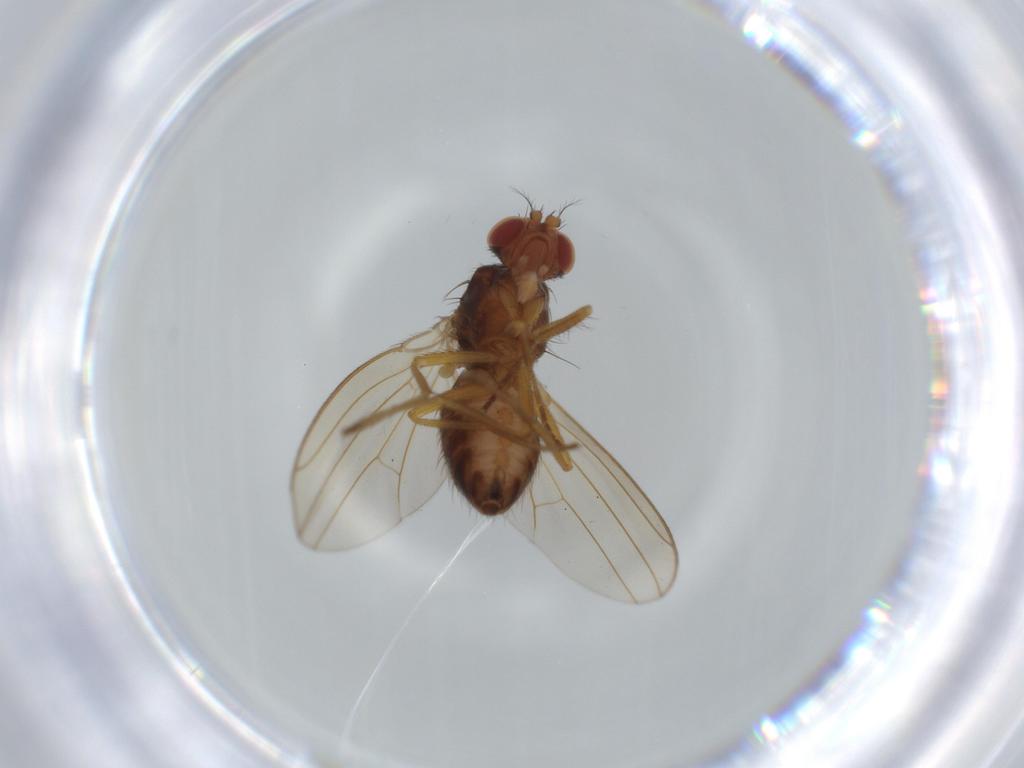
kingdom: Animalia
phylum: Arthropoda
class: Insecta
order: Diptera
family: Drosophilidae
